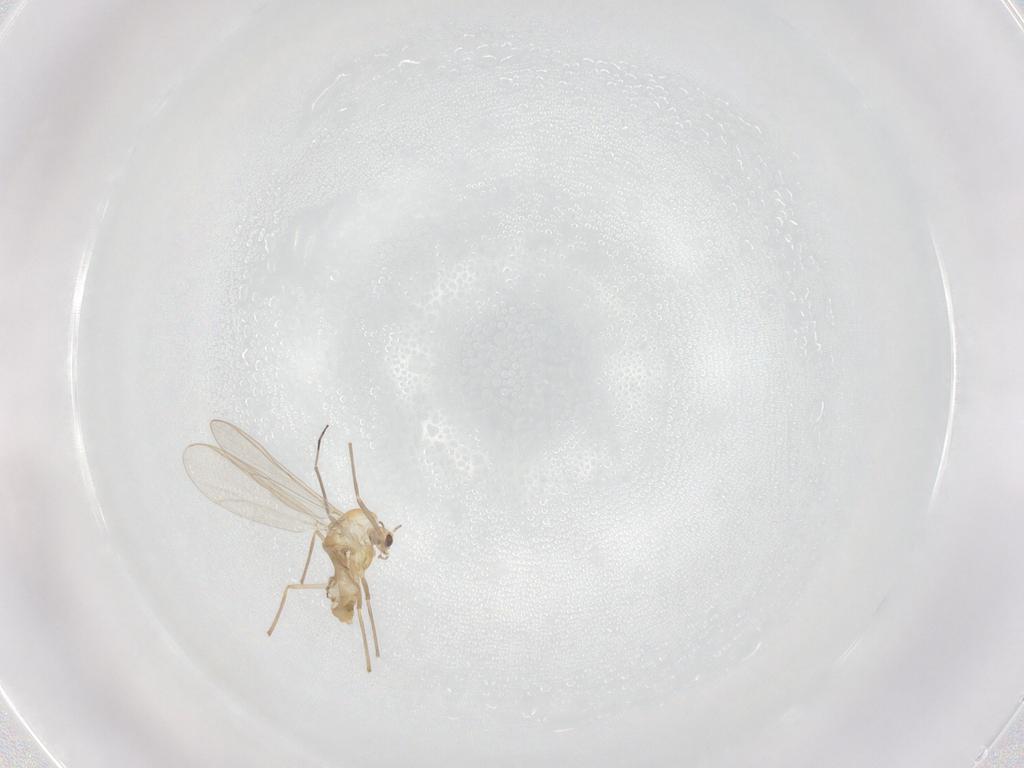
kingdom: Animalia
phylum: Arthropoda
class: Insecta
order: Diptera
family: Chironomidae
